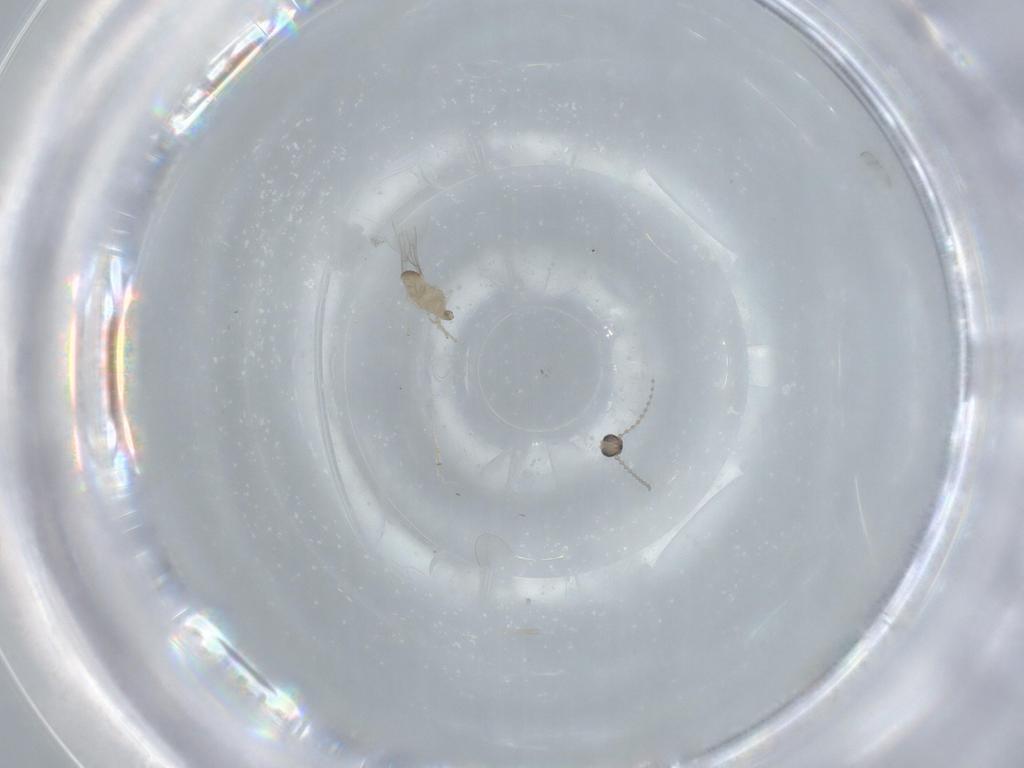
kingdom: Animalia
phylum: Arthropoda
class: Insecta
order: Diptera
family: Cecidomyiidae
